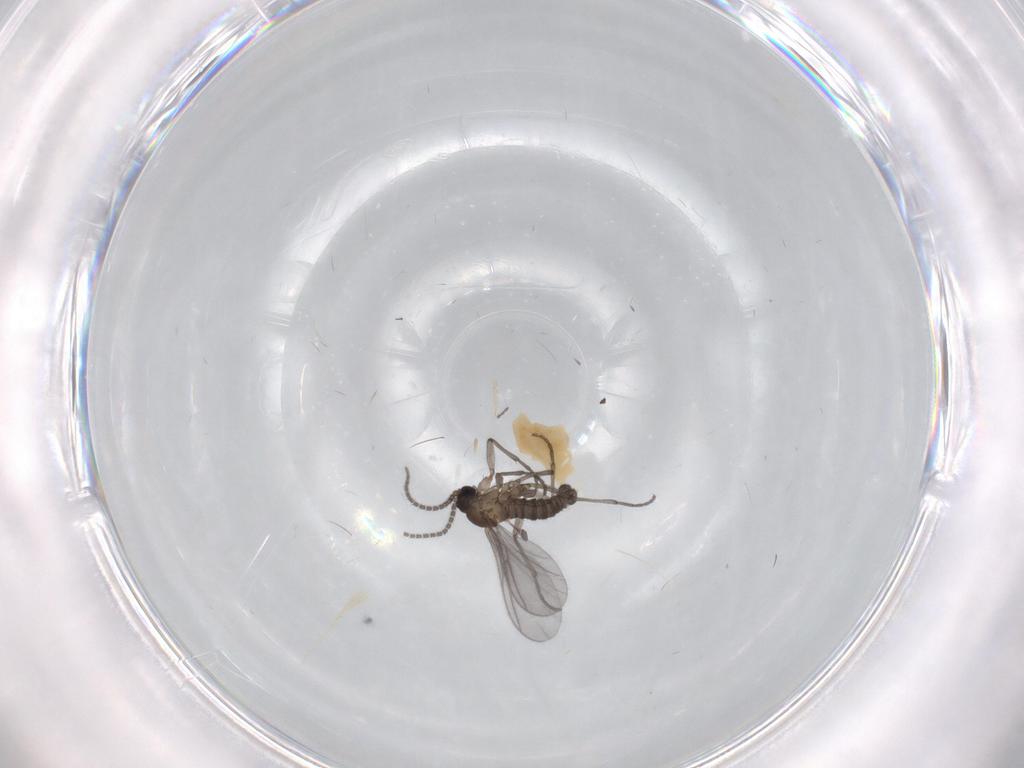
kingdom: Animalia
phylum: Arthropoda
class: Insecta
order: Diptera
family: Sciaridae
